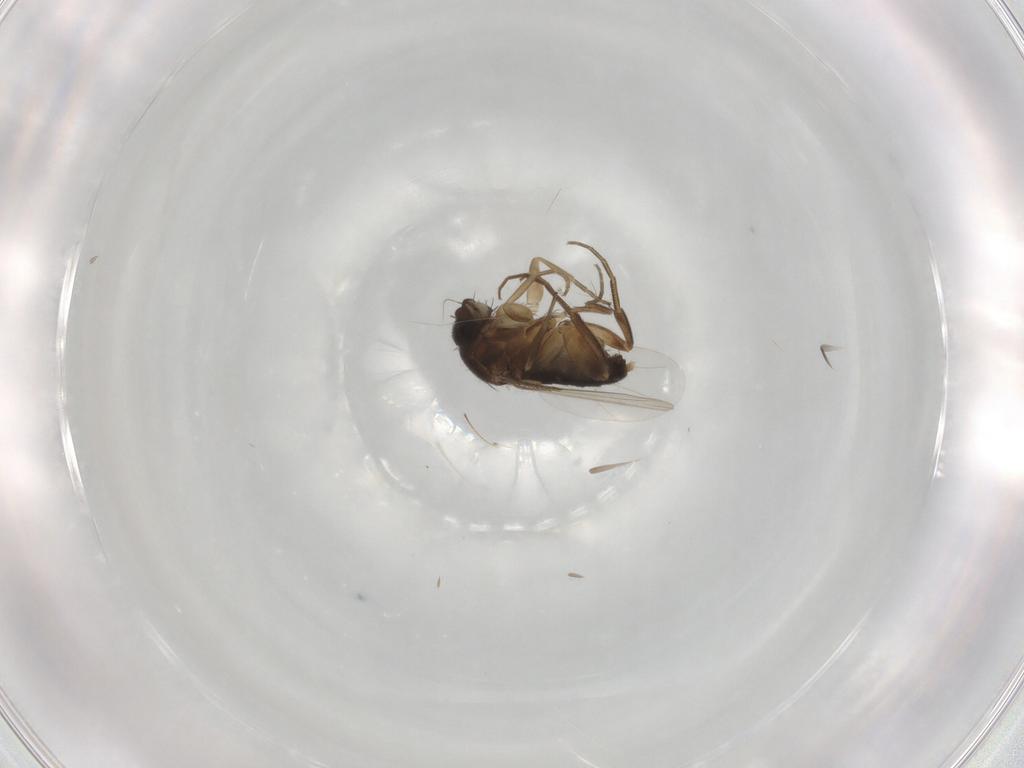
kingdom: Animalia
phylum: Arthropoda
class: Insecta
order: Diptera
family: Phoridae
